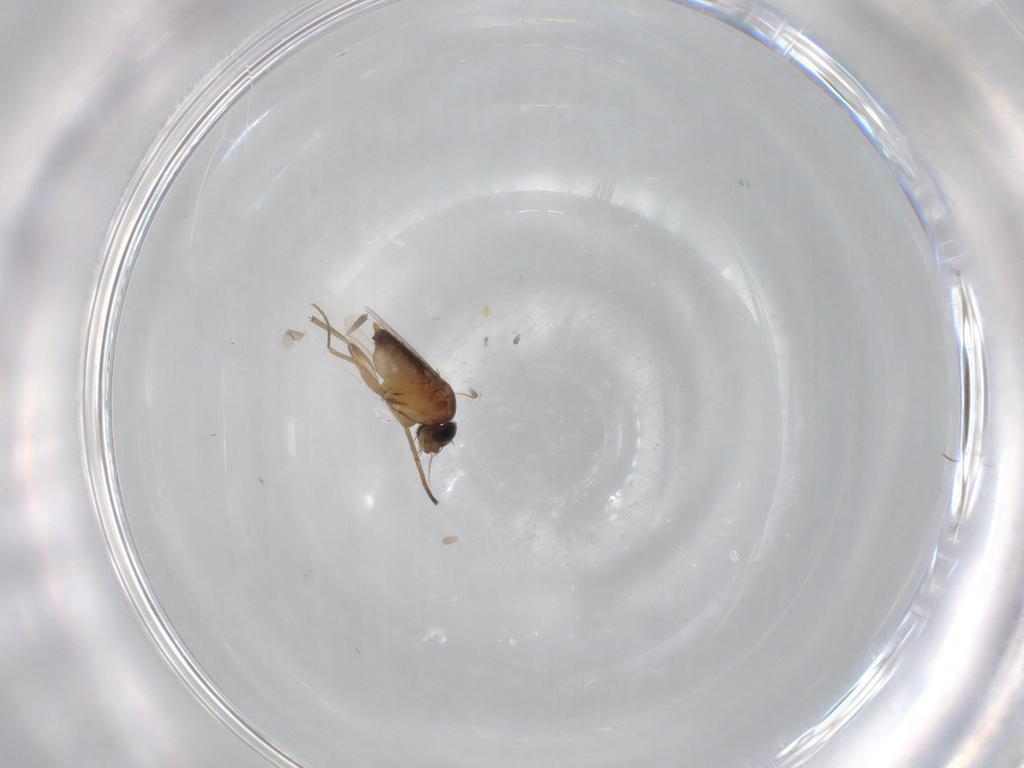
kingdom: Animalia
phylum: Arthropoda
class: Insecta
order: Diptera
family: Phoridae
